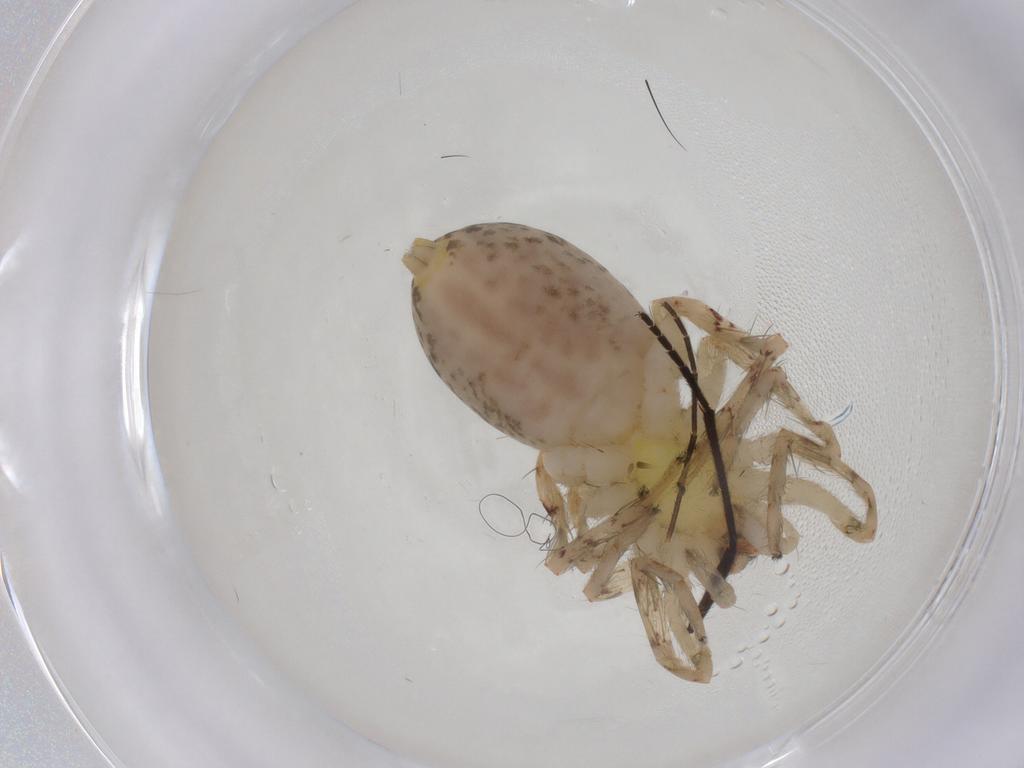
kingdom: Animalia
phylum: Arthropoda
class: Arachnida
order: Araneae
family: Anyphaenidae
